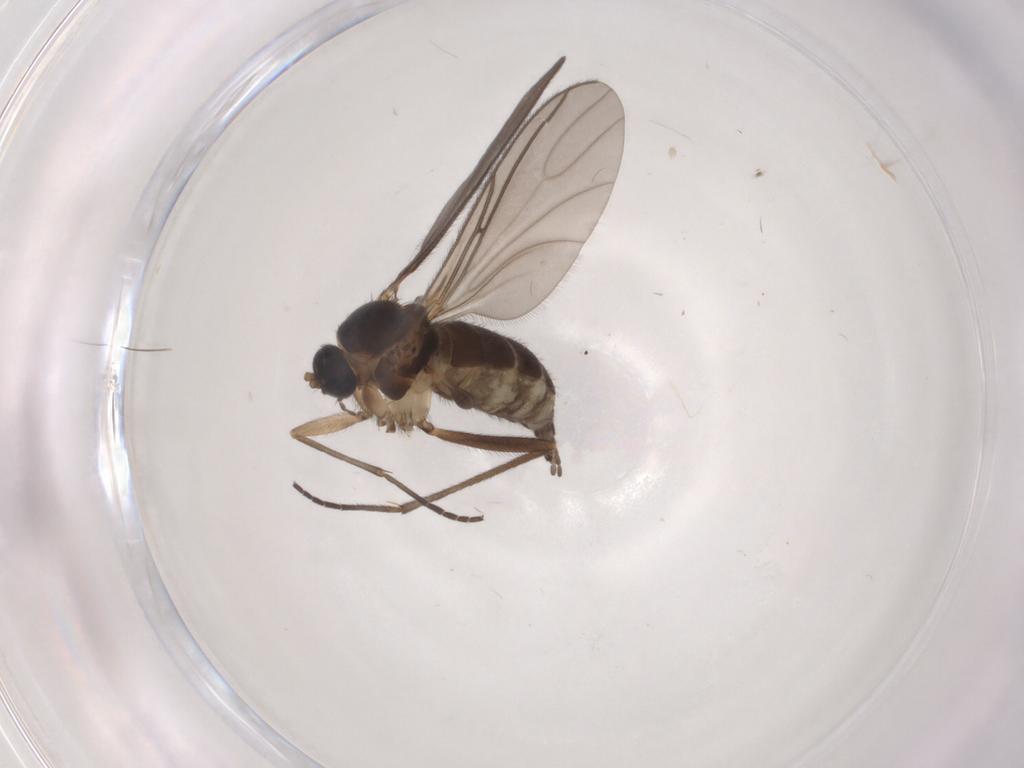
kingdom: Animalia
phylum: Arthropoda
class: Insecta
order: Diptera
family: Sciaridae
